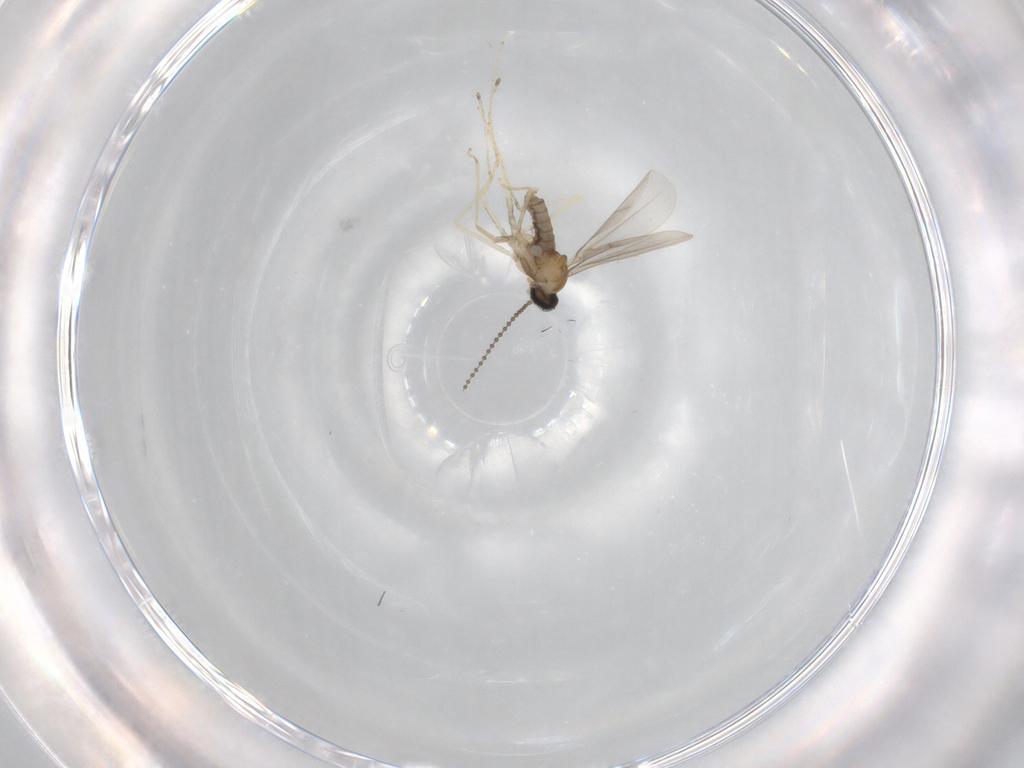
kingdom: Animalia
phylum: Arthropoda
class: Insecta
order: Diptera
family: Cecidomyiidae
